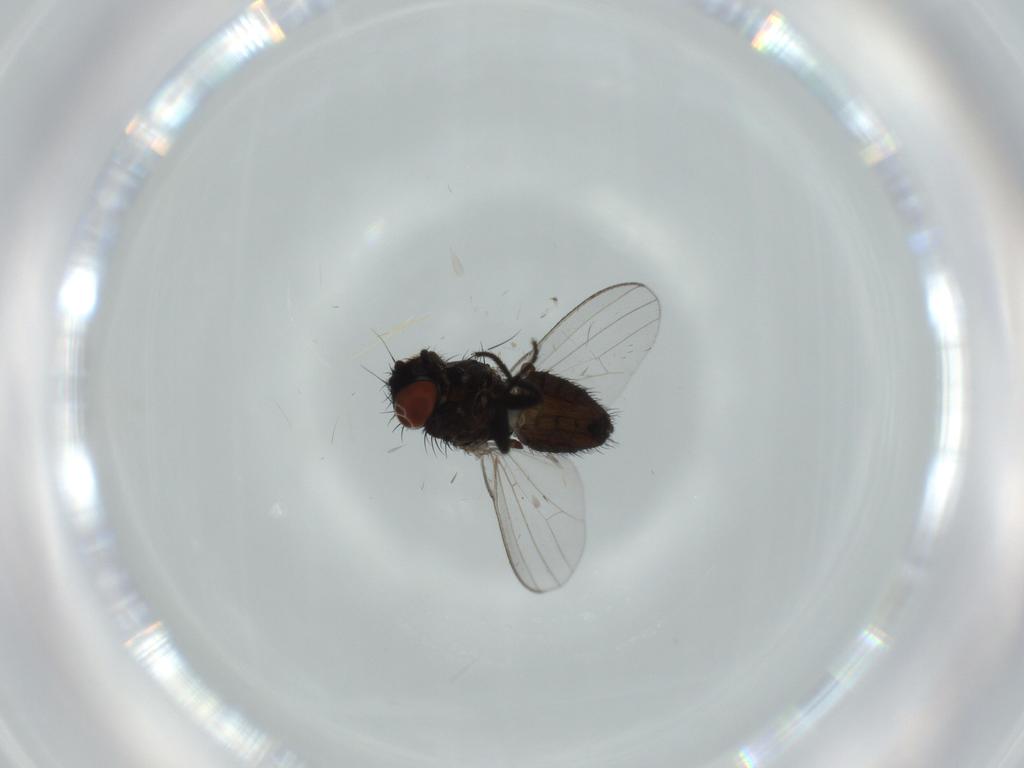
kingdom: Animalia
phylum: Arthropoda
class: Insecta
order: Diptera
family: Milichiidae
